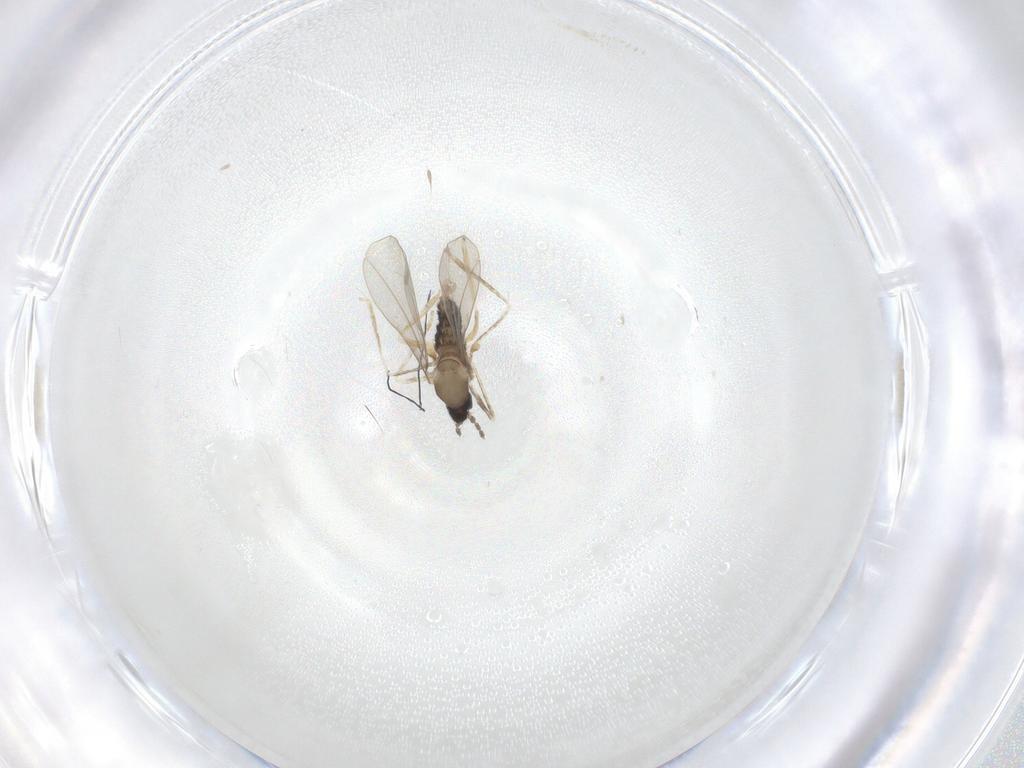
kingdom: Animalia
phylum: Arthropoda
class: Insecta
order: Diptera
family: Cecidomyiidae
